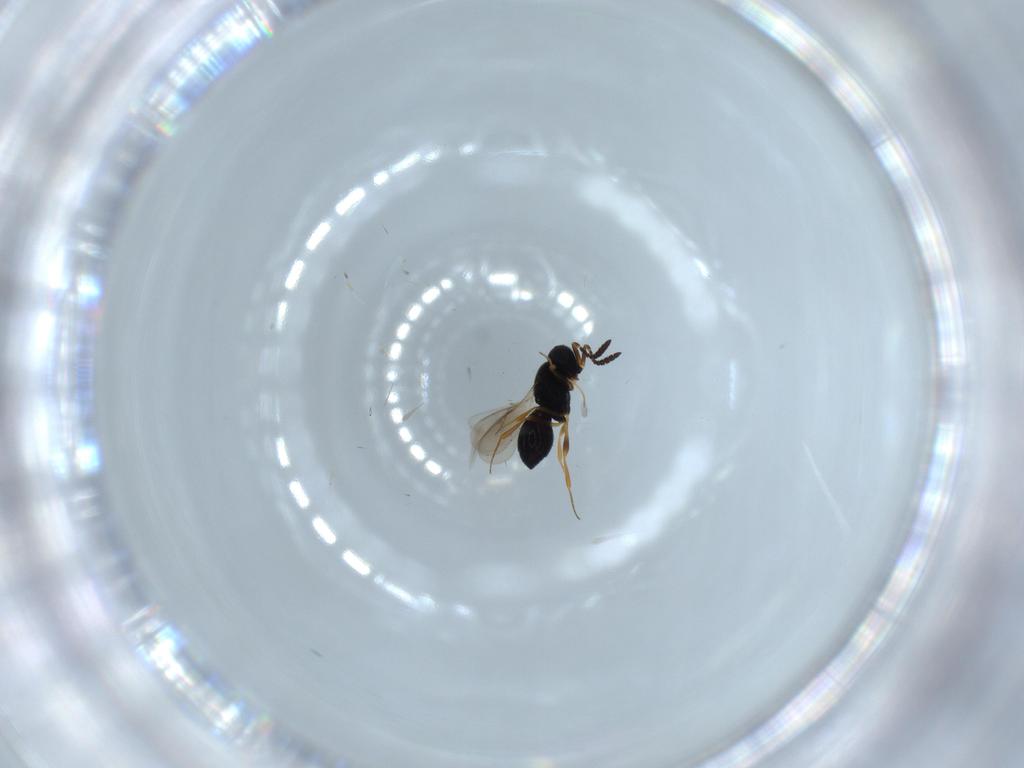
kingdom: Animalia
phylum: Arthropoda
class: Insecta
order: Hymenoptera
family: Scelionidae
